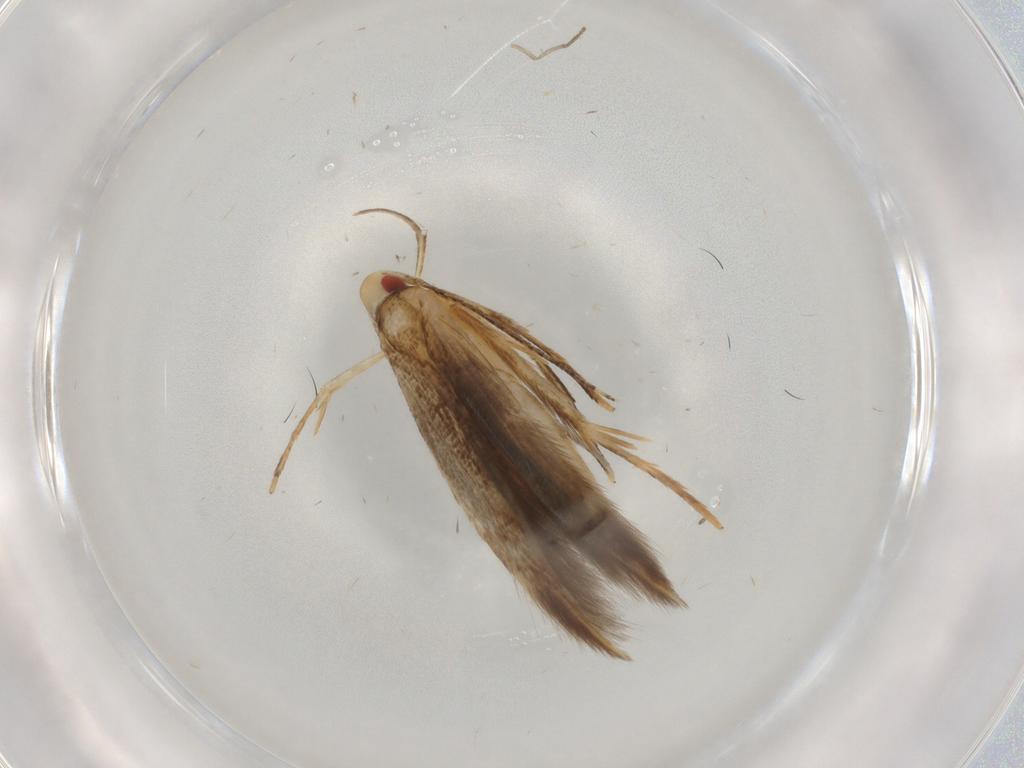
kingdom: Animalia
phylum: Arthropoda
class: Insecta
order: Lepidoptera
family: Gelechiidae
